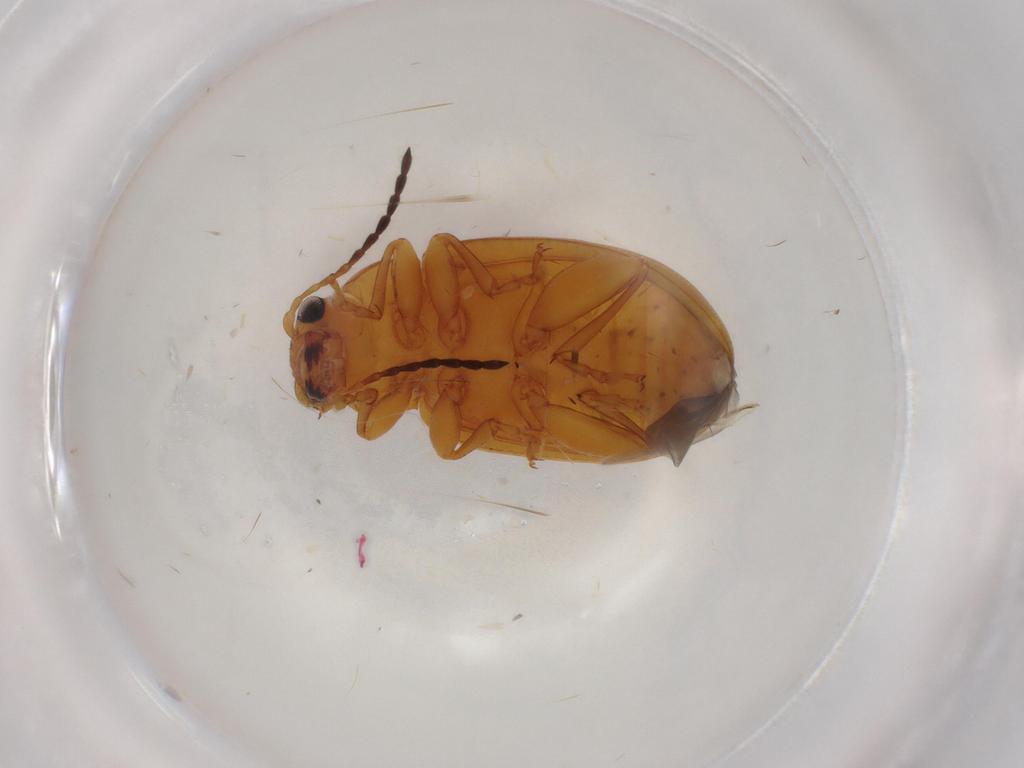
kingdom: Animalia
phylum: Arthropoda
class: Insecta
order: Coleoptera
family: Chrysomelidae
